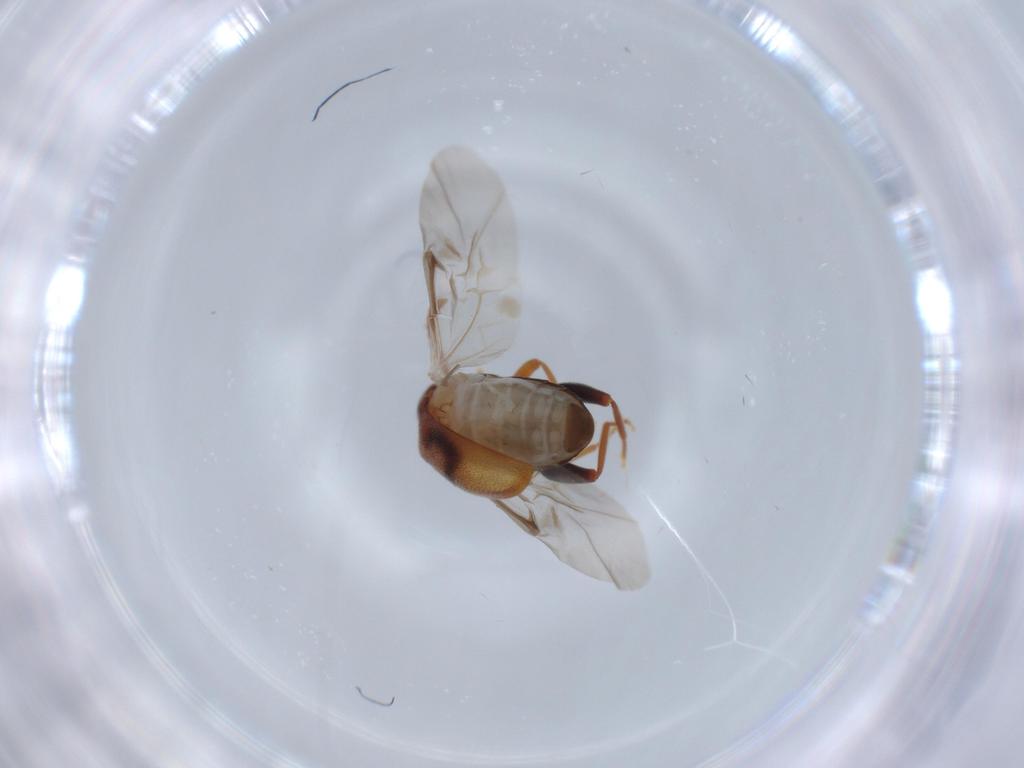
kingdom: Animalia
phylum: Arthropoda
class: Insecta
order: Coleoptera
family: Aderidae
